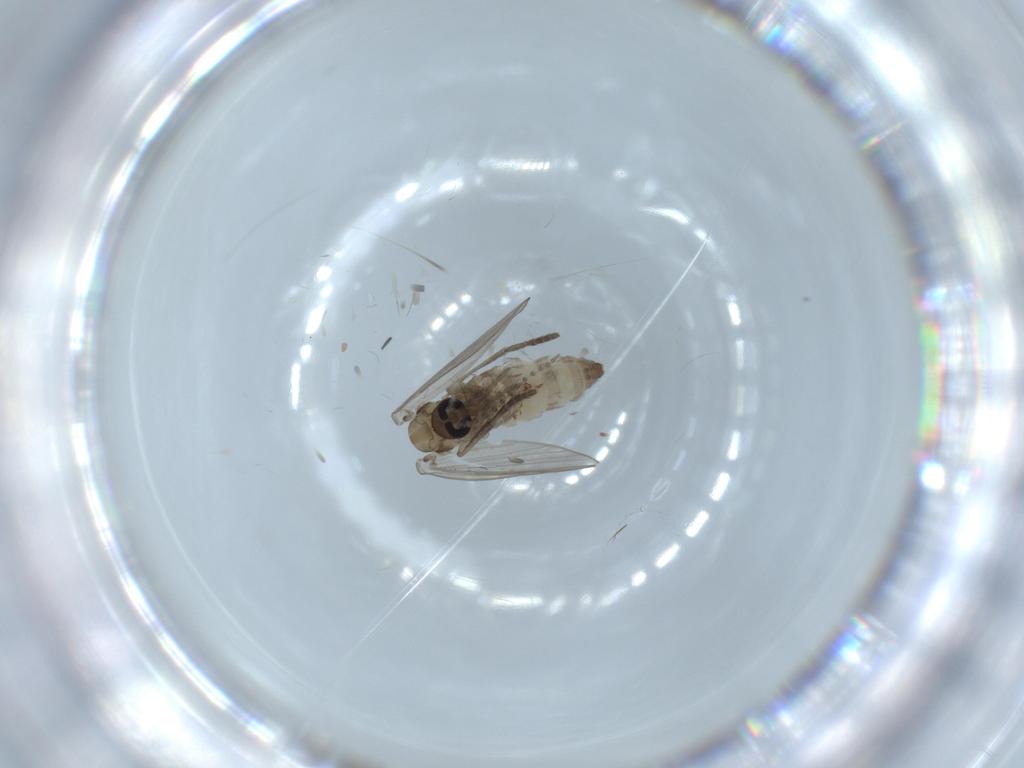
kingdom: Animalia
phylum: Arthropoda
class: Insecta
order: Diptera
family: Psychodidae
